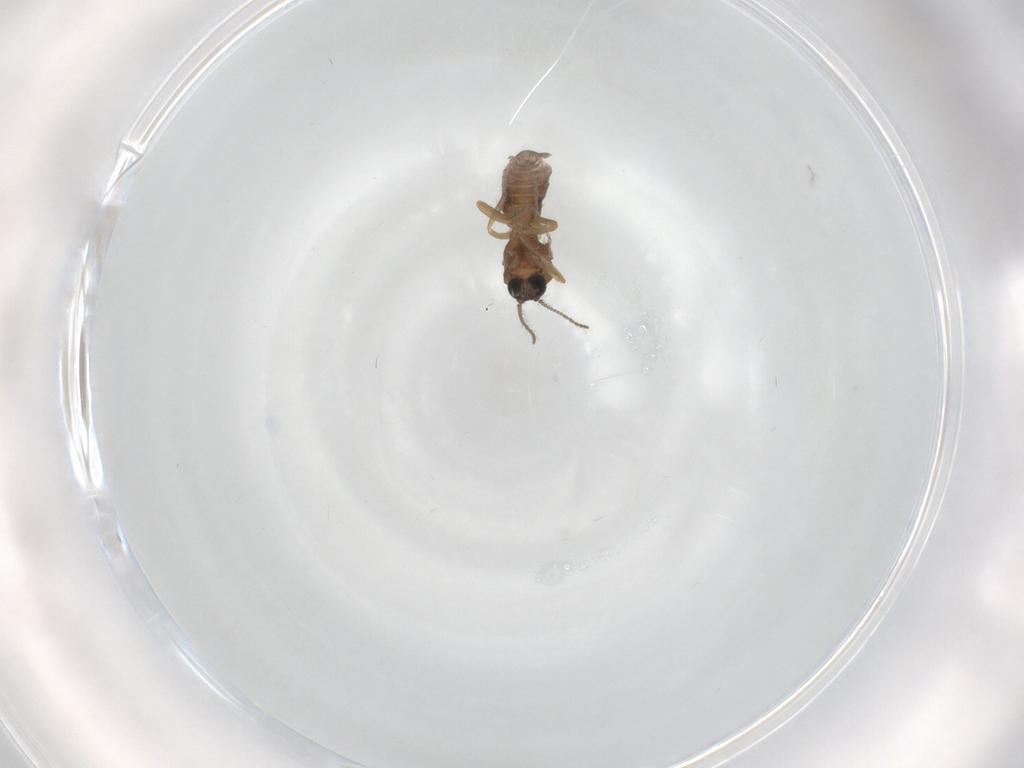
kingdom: Animalia
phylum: Arthropoda
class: Insecta
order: Diptera
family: Ceratopogonidae
